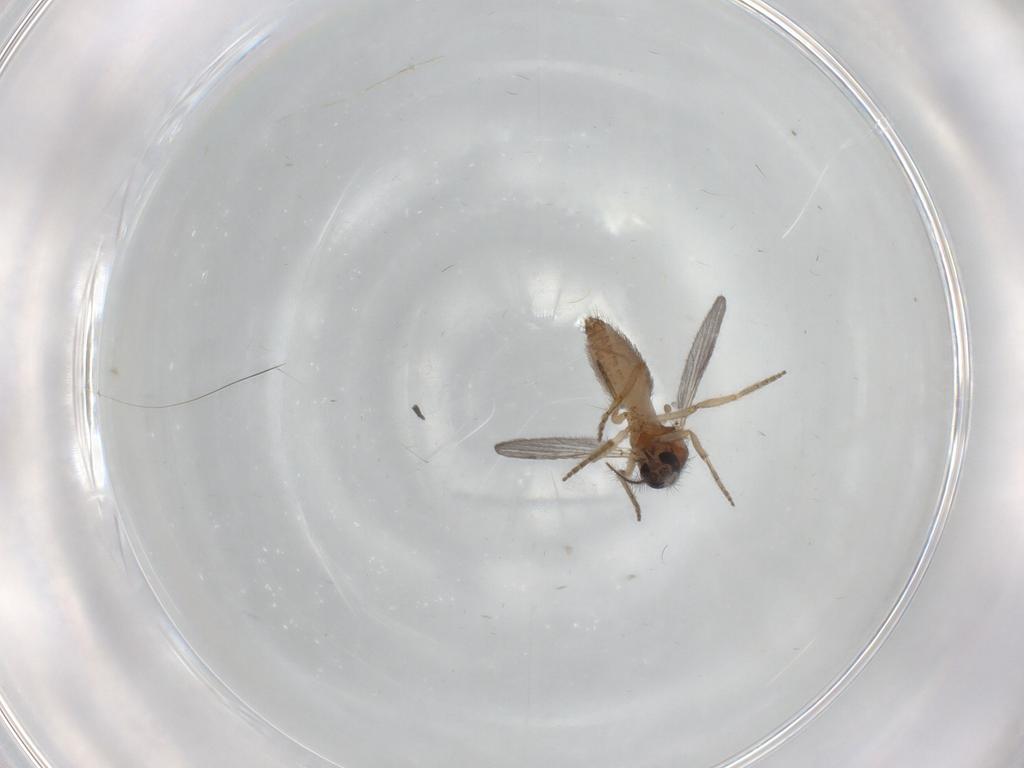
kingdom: Animalia
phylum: Arthropoda
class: Insecta
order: Diptera
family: Ceratopogonidae
